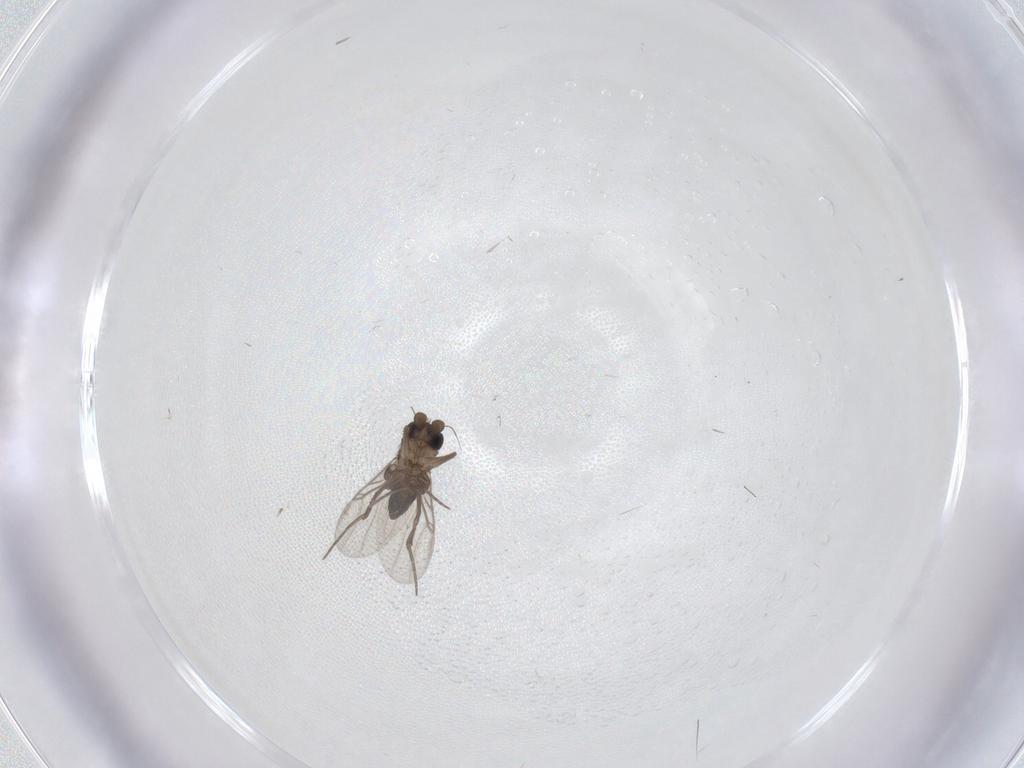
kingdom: Animalia
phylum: Arthropoda
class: Insecta
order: Diptera
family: Phoridae
